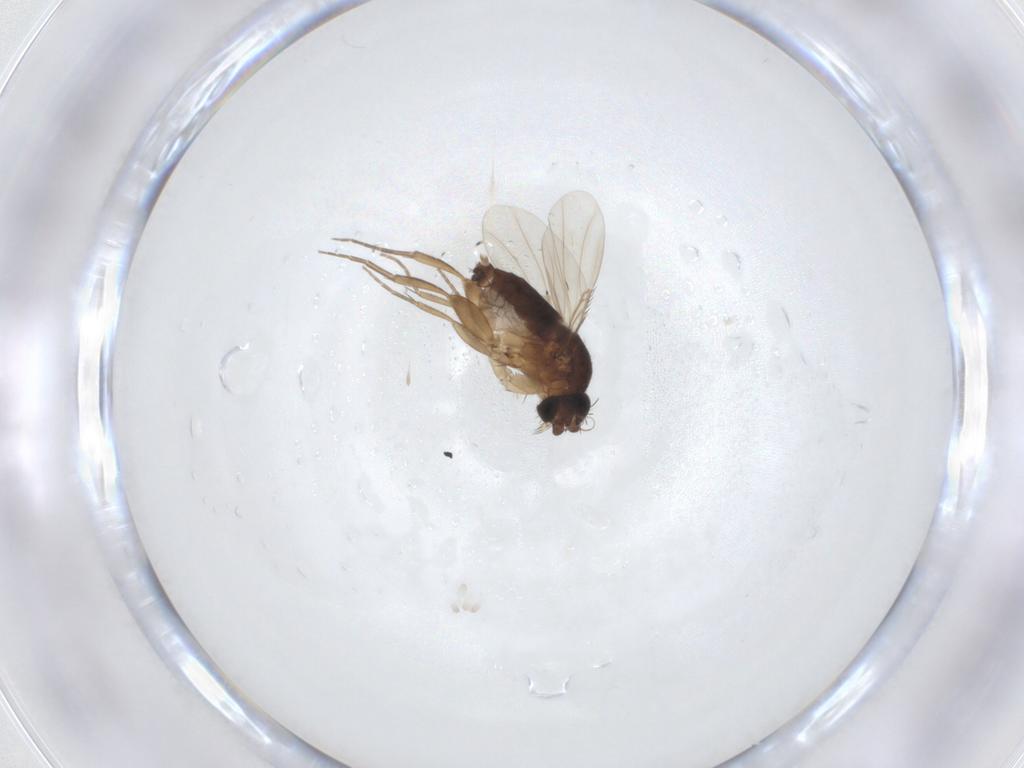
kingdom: Animalia
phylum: Arthropoda
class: Insecta
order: Diptera
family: Phoridae
